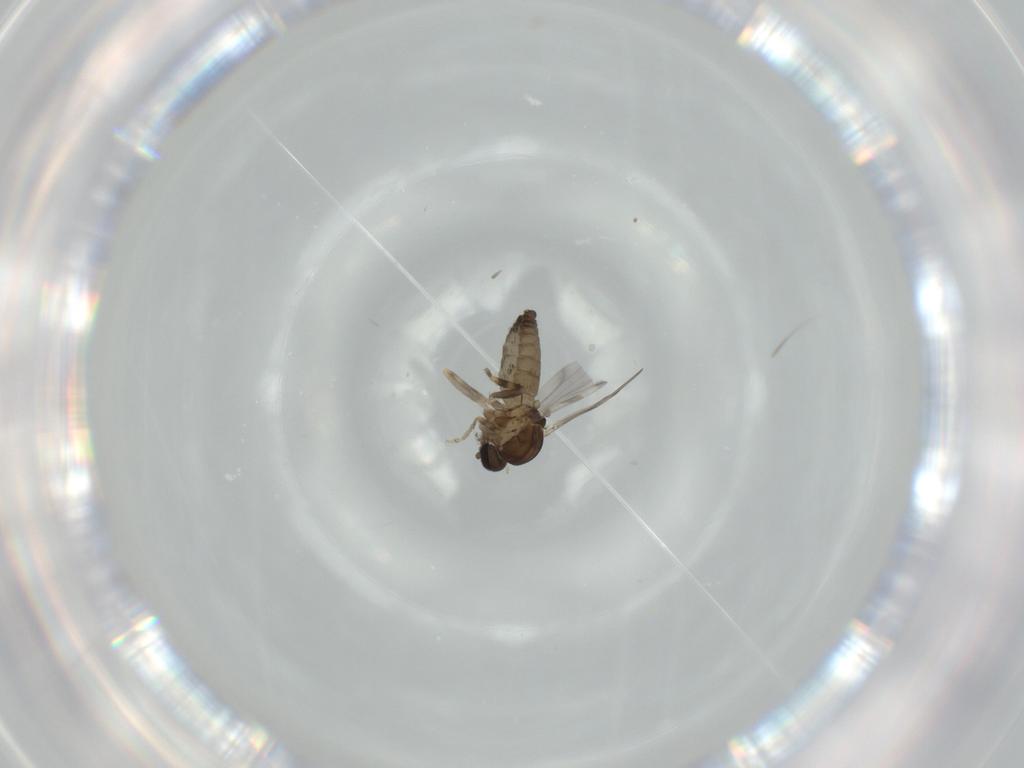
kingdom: Animalia
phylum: Arthropoda
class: Insecta
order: Diptera
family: Ceratopogonidae
